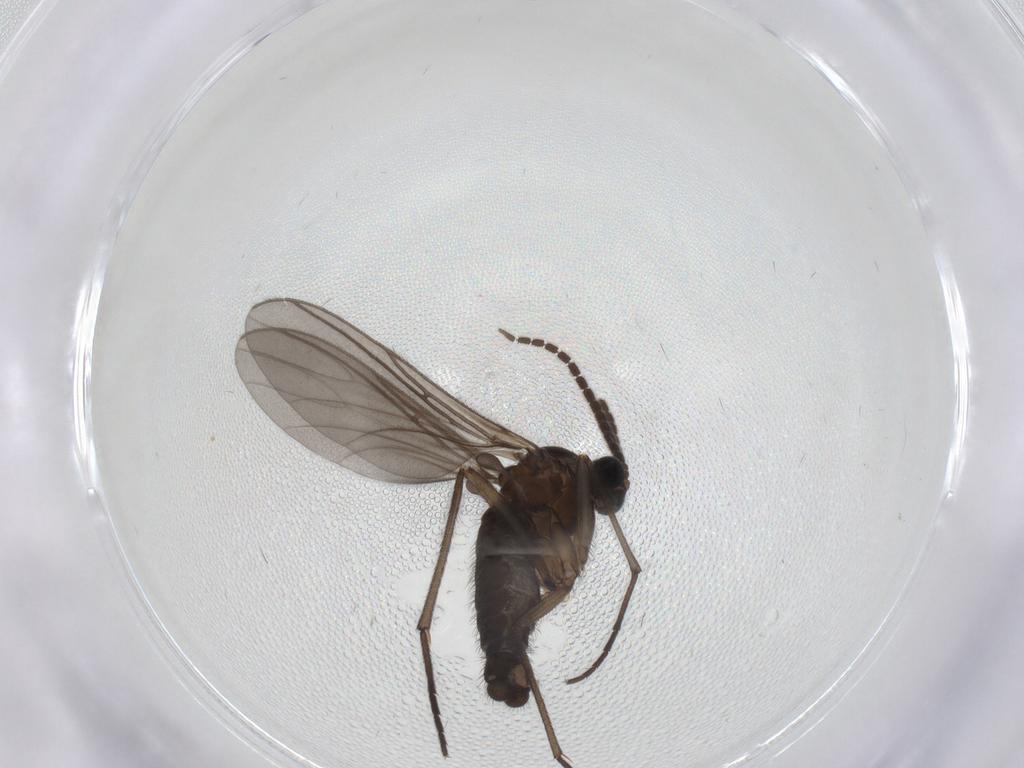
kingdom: Animalia
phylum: Arthropoda
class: Insecta
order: Diptera
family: Sciaridae
